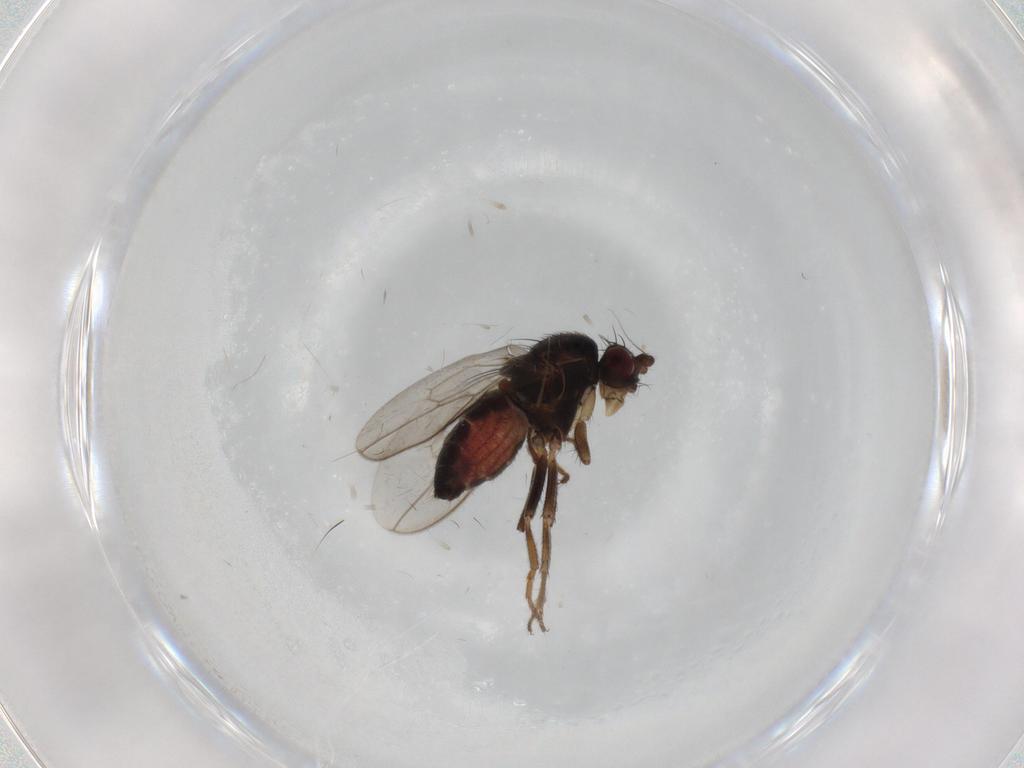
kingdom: Animalia
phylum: Arthropoda
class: Insecta
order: Diptera
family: Sphaeroceridae
